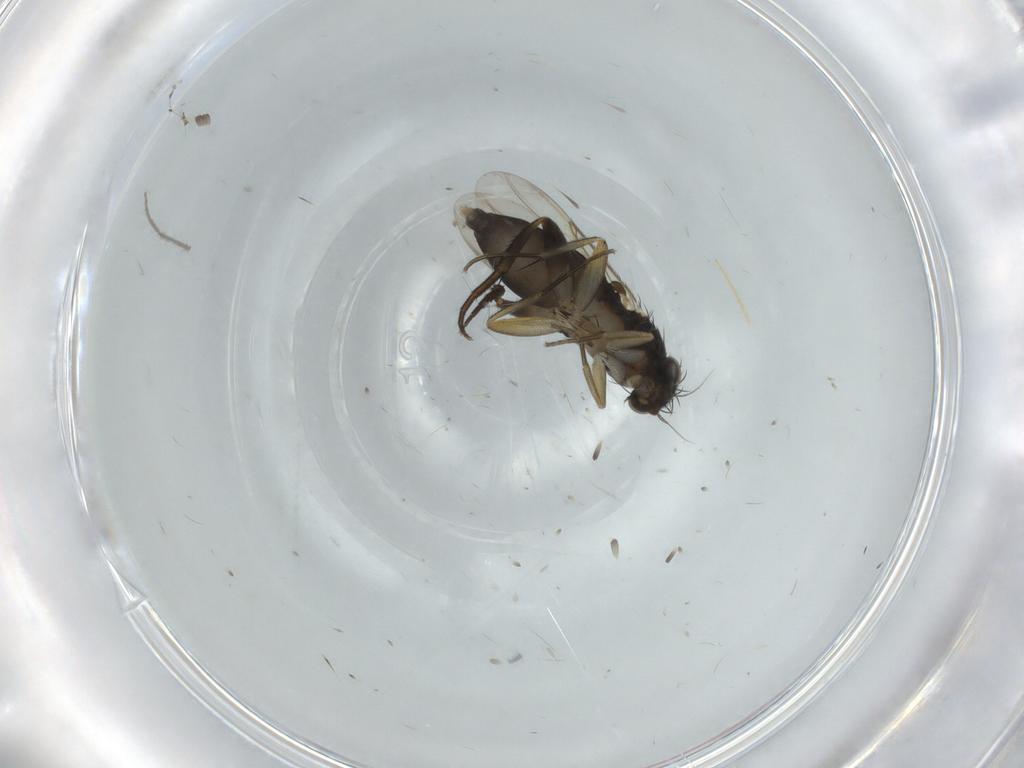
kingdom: Animalia
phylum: Arthropoda
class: Insecta
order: Diptera
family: Phoridae
